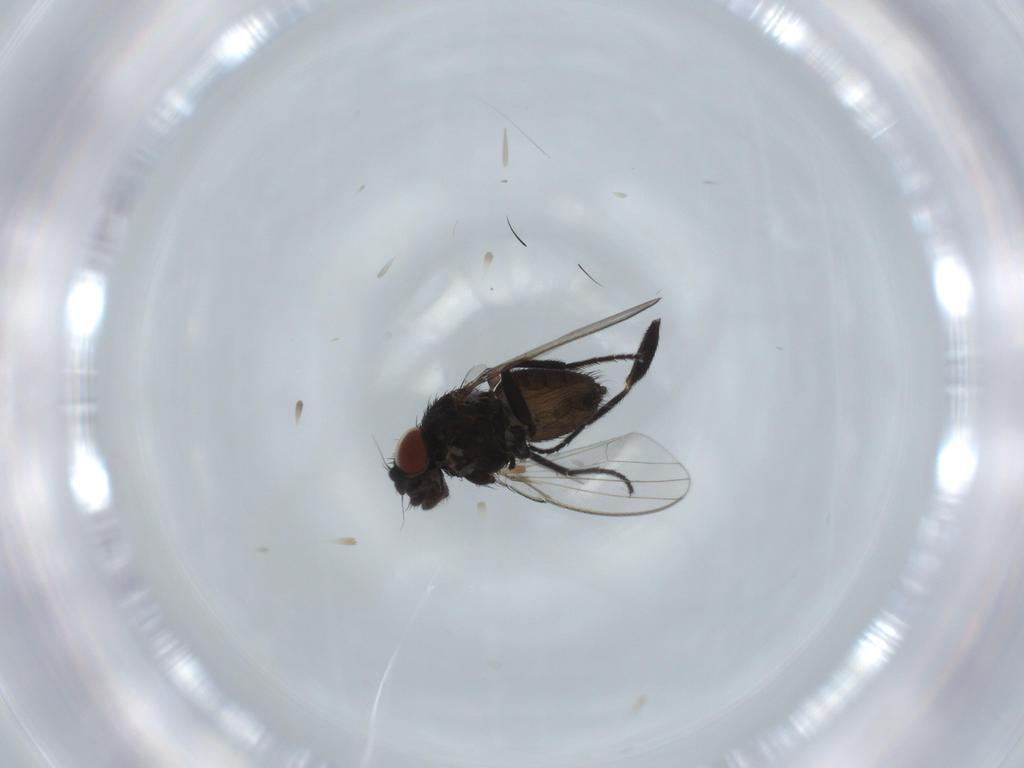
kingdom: Animalia
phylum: Arthropoda
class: Insecta
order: Diptera
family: Milichiidae
